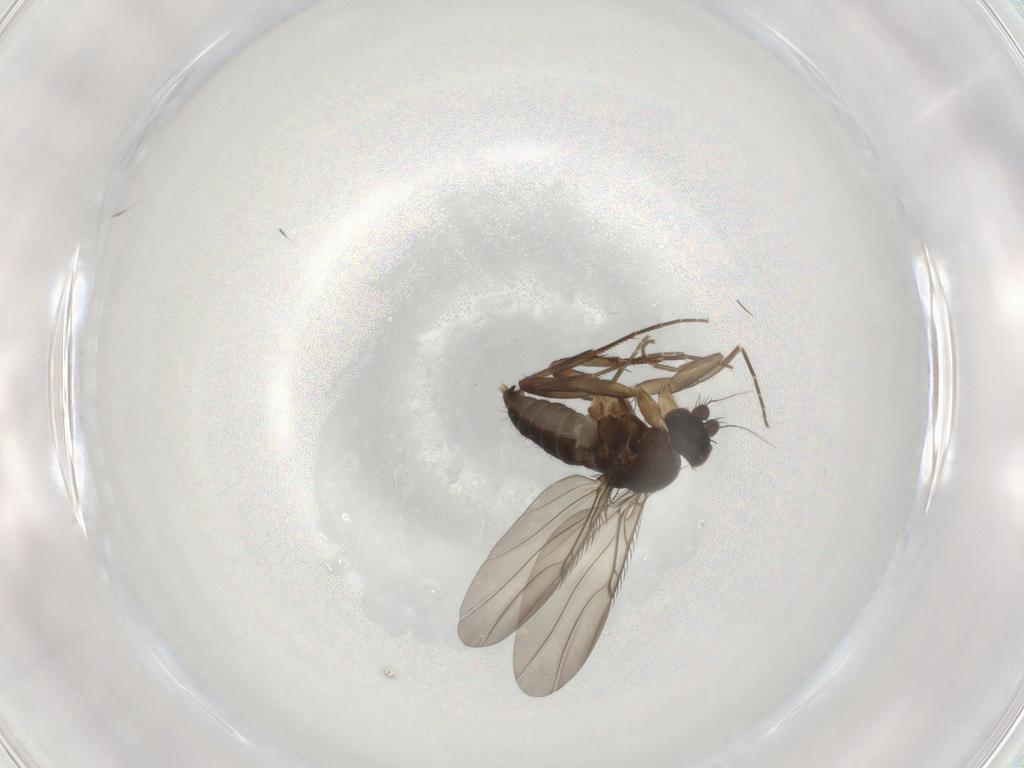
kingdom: Animalia
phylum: Arthropoda
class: Insecta
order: Diptera
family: Phoridae
